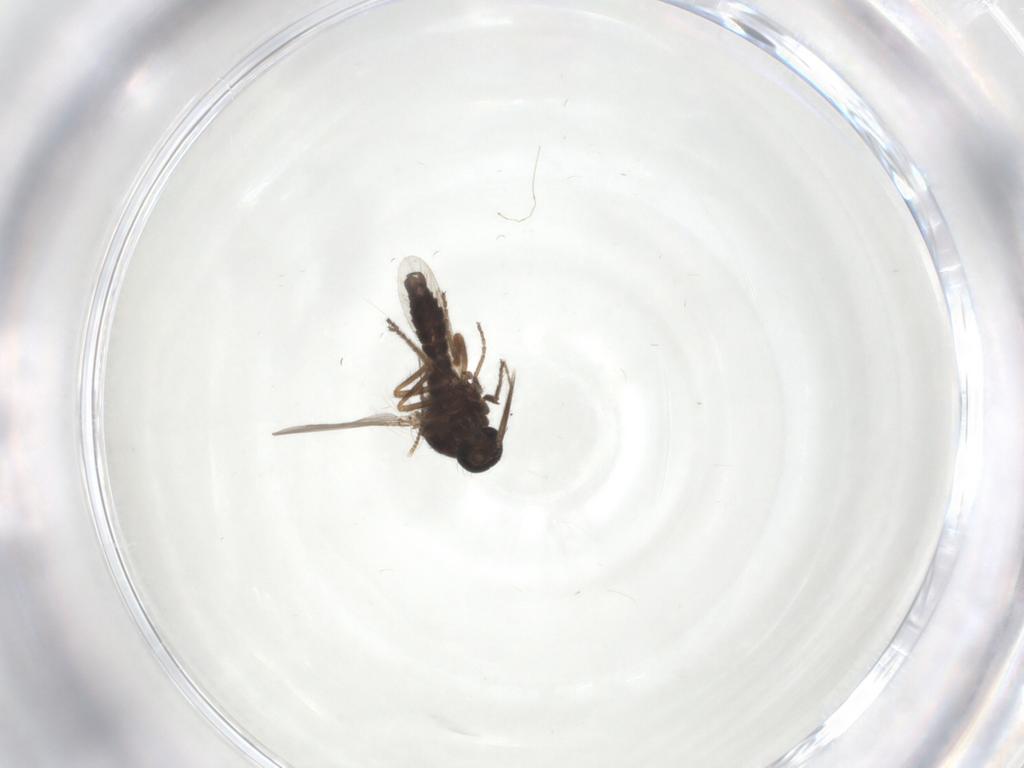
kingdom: Animalia
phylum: Arthropoda
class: Insecta
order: Diptera
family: Ceratopogonidae
